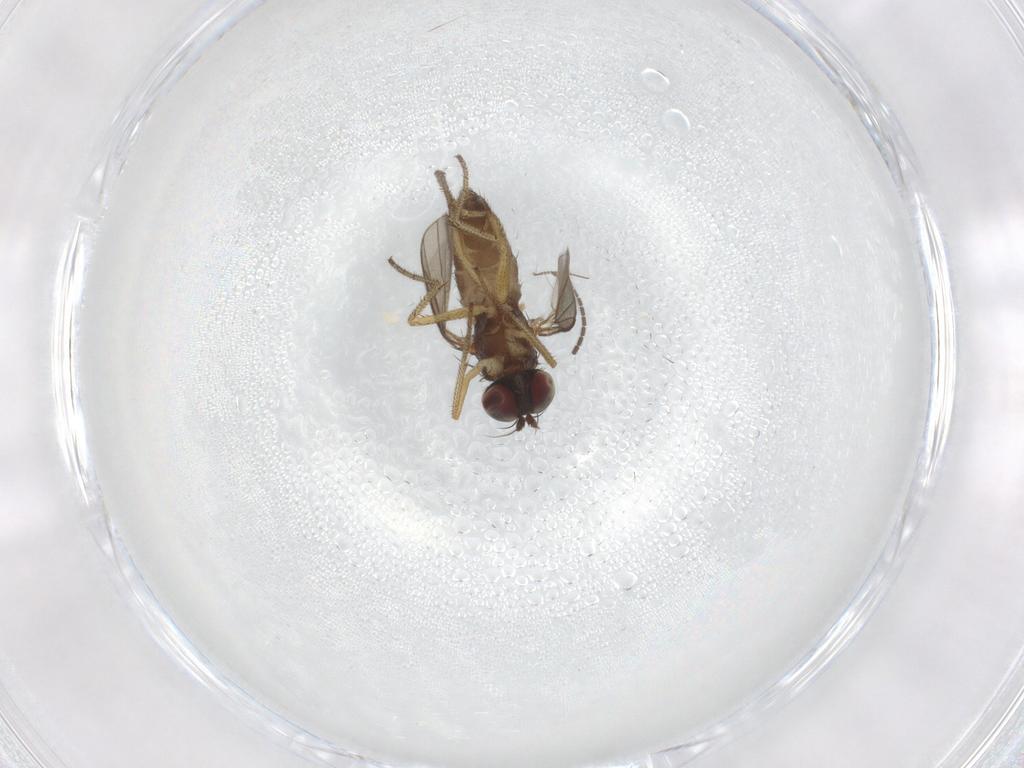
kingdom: Animalia
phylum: Arthropoda
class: Insecta
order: Diptera
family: Sciaridae
